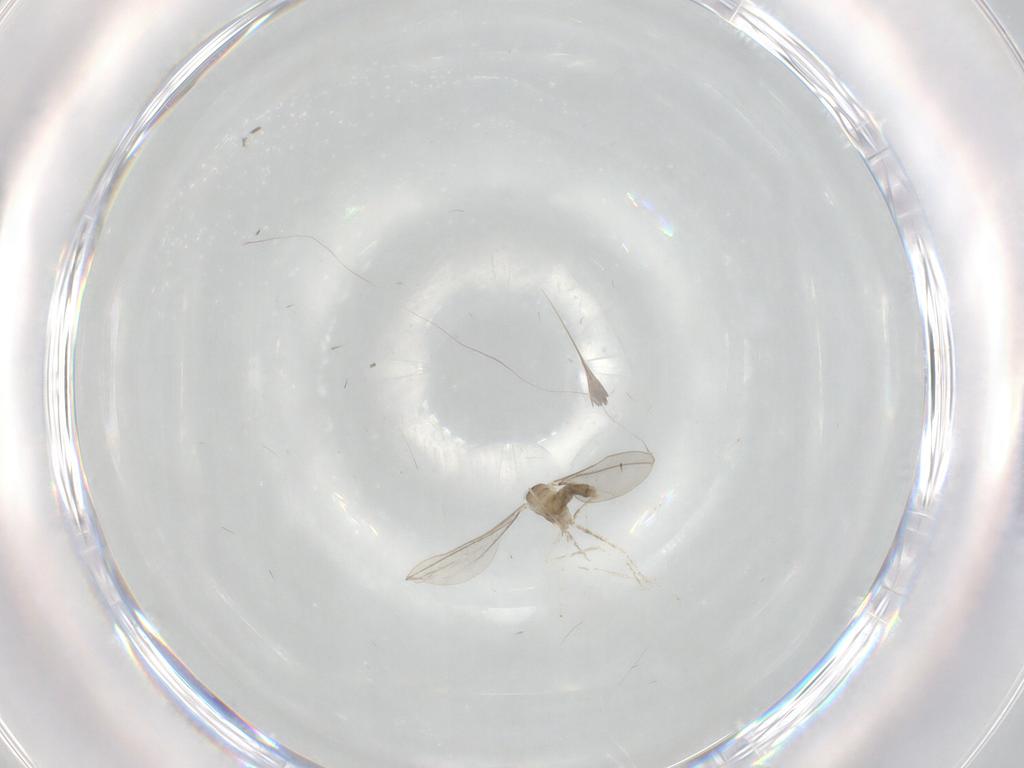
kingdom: Animalia
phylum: Arthropoda
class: Insecta
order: Diptera
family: Cecidomyiidae
